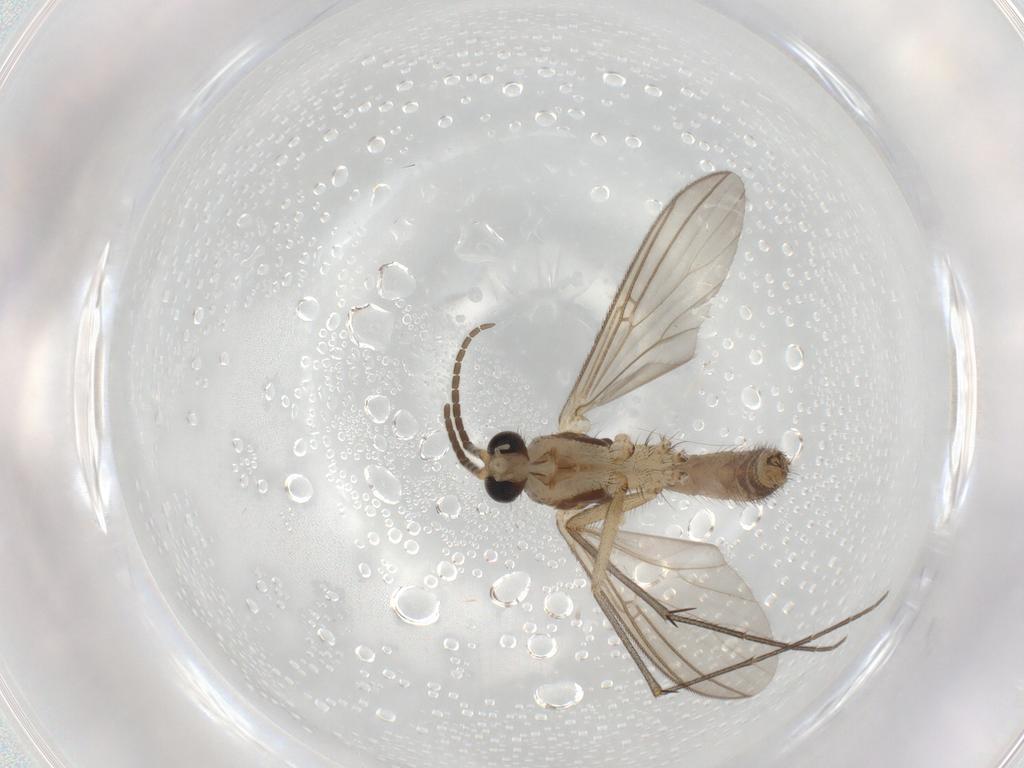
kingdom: Animalia
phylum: Arthropoda
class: Insecta
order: Diptera
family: Mycetophilidae
